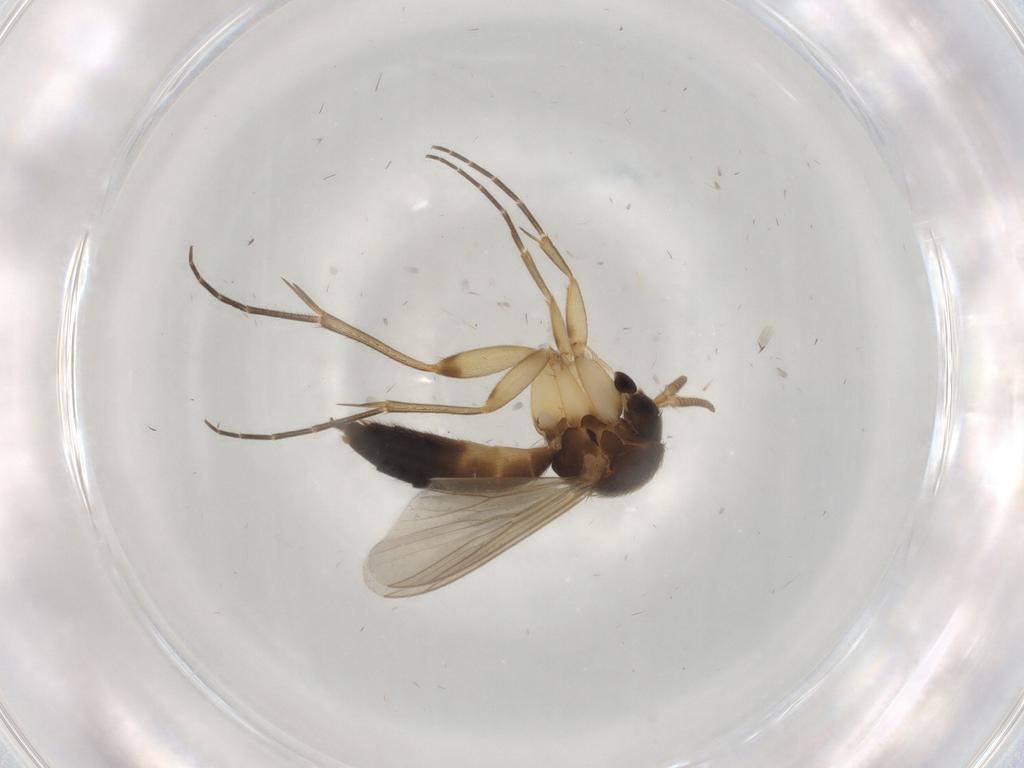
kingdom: Animalia
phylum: Arthropoda
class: Insecta
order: Diptera
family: Mycetophilidae
